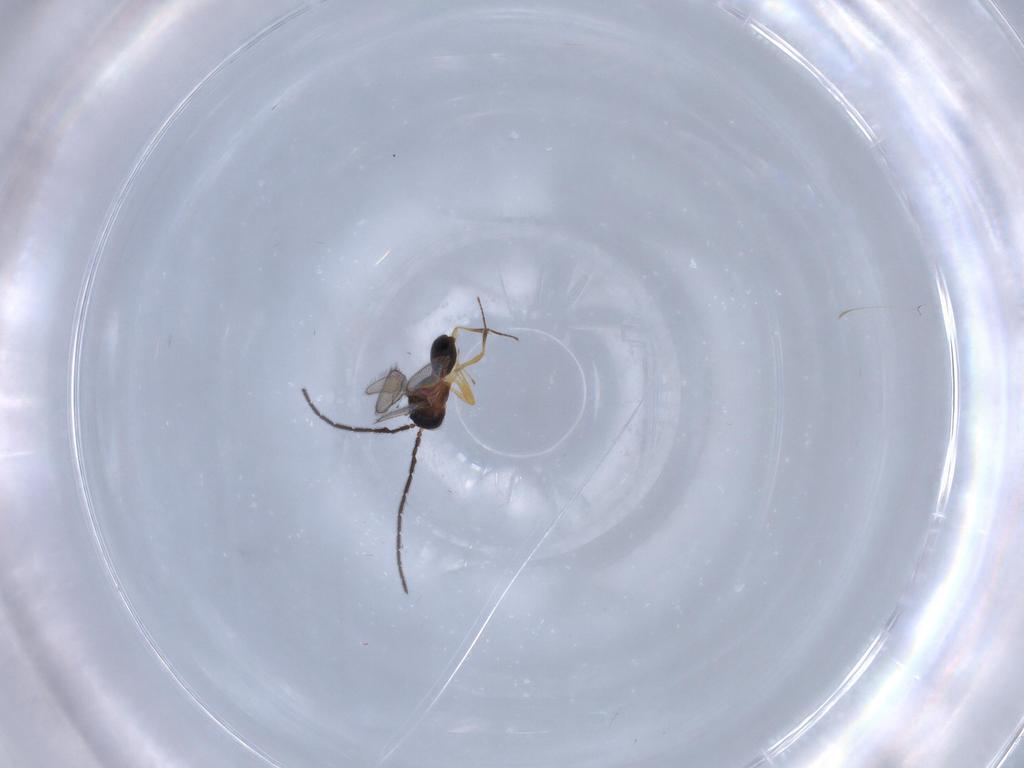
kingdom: Animalia
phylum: Arthropoda
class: Insecta
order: Hymenoptera
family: Scelionidae
